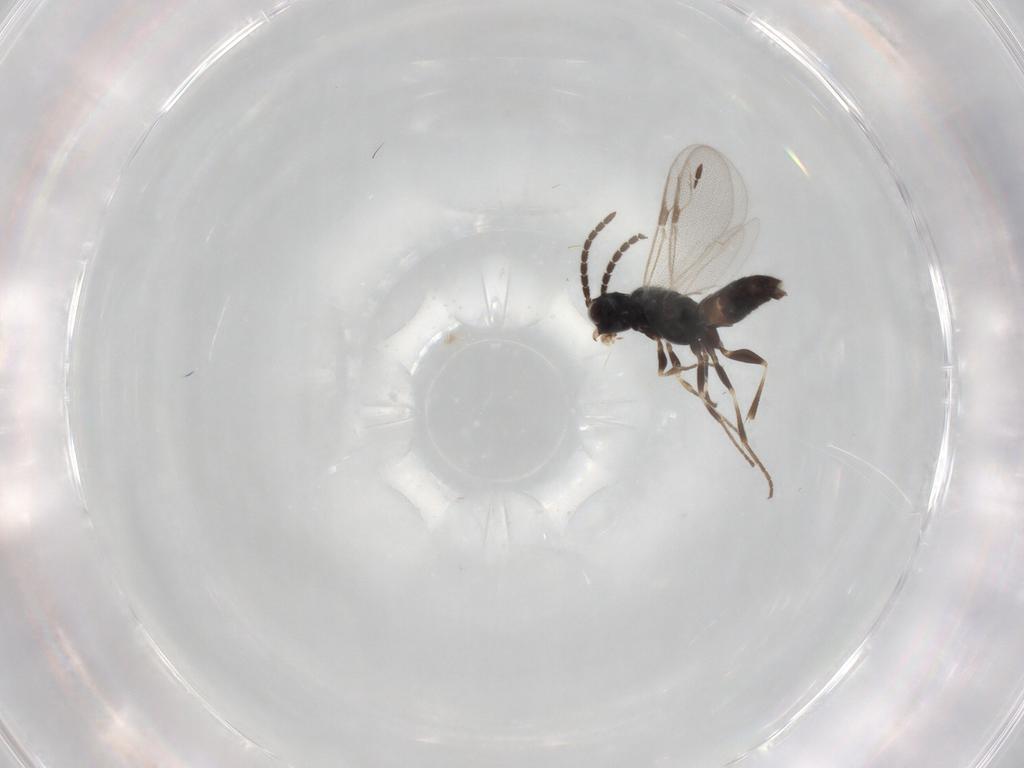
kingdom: Animalia
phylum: Arthropoda
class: Insecta
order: Hymenoptera
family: Dryinidae
